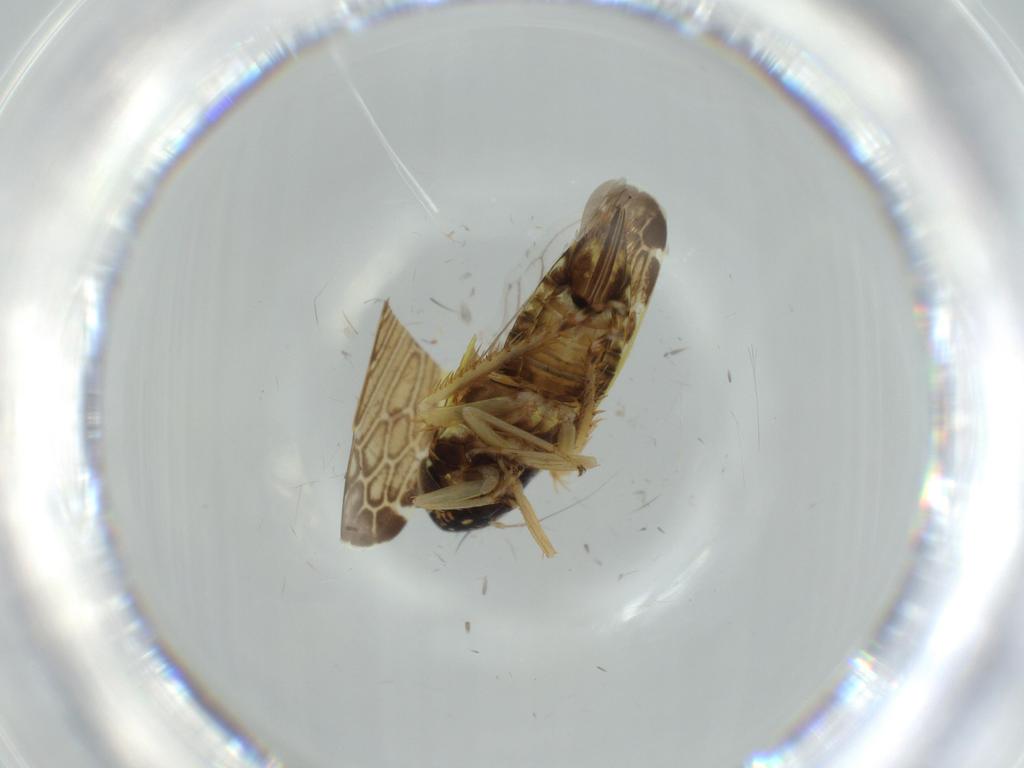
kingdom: Animalia
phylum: Arthropoda
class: Insecta
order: Hemiptera
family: Cicadellidae
